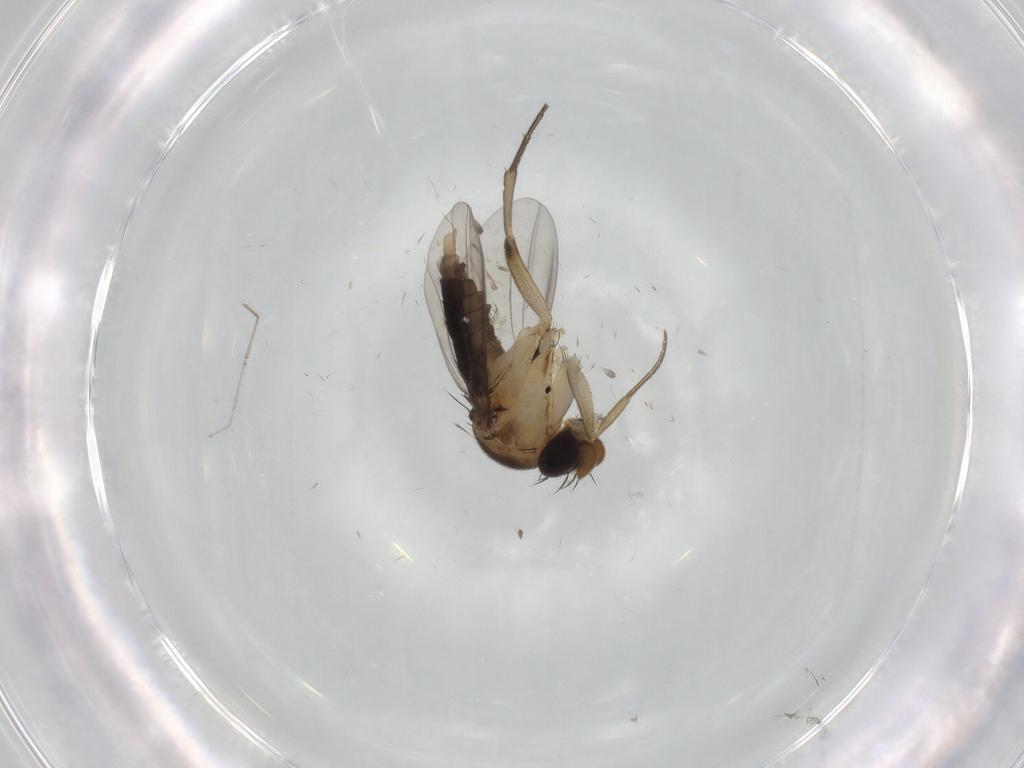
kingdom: Animalia
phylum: Arthropoda
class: Insecta
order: Diptera
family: Phoridae
